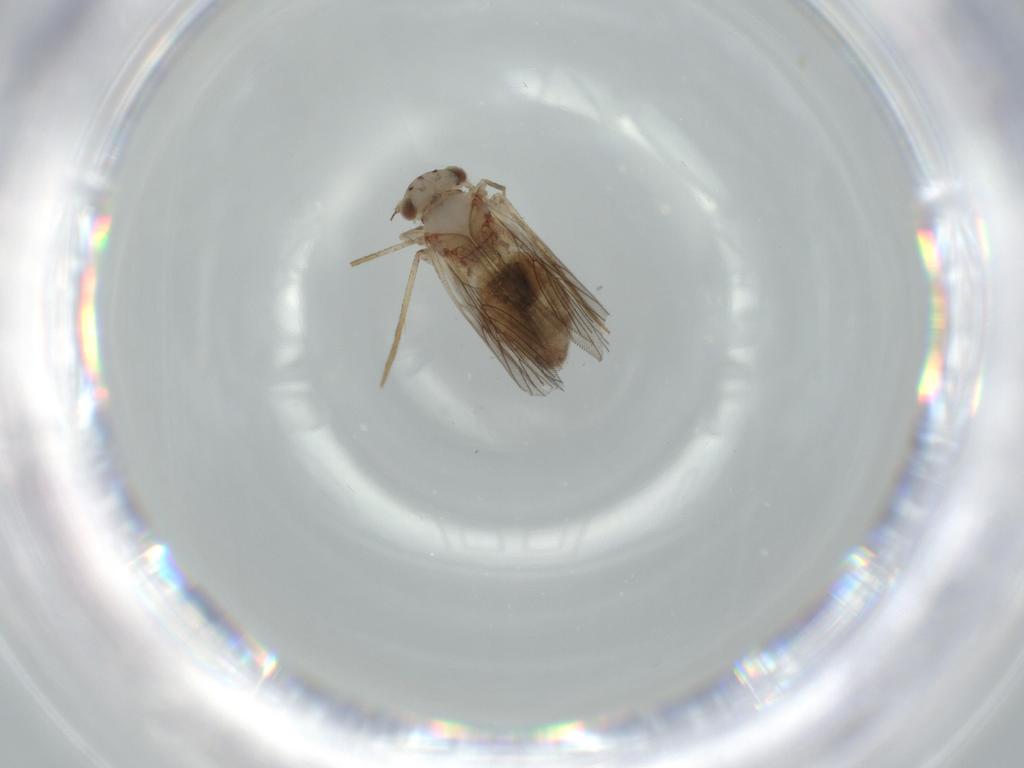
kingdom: Animalia
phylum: Arthropoda
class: Insecta
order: Psocodea
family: Lepidopsocidae
